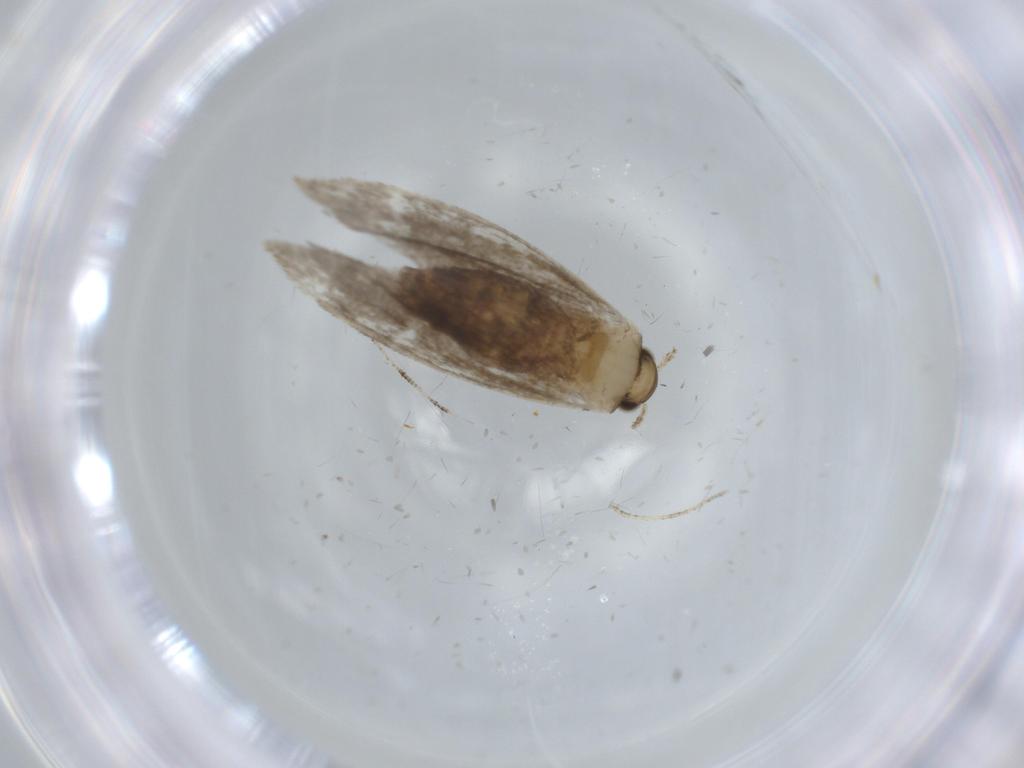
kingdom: Animalia
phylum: Arthropoda
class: Insecta
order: Lepidoptera
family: Tineidae
